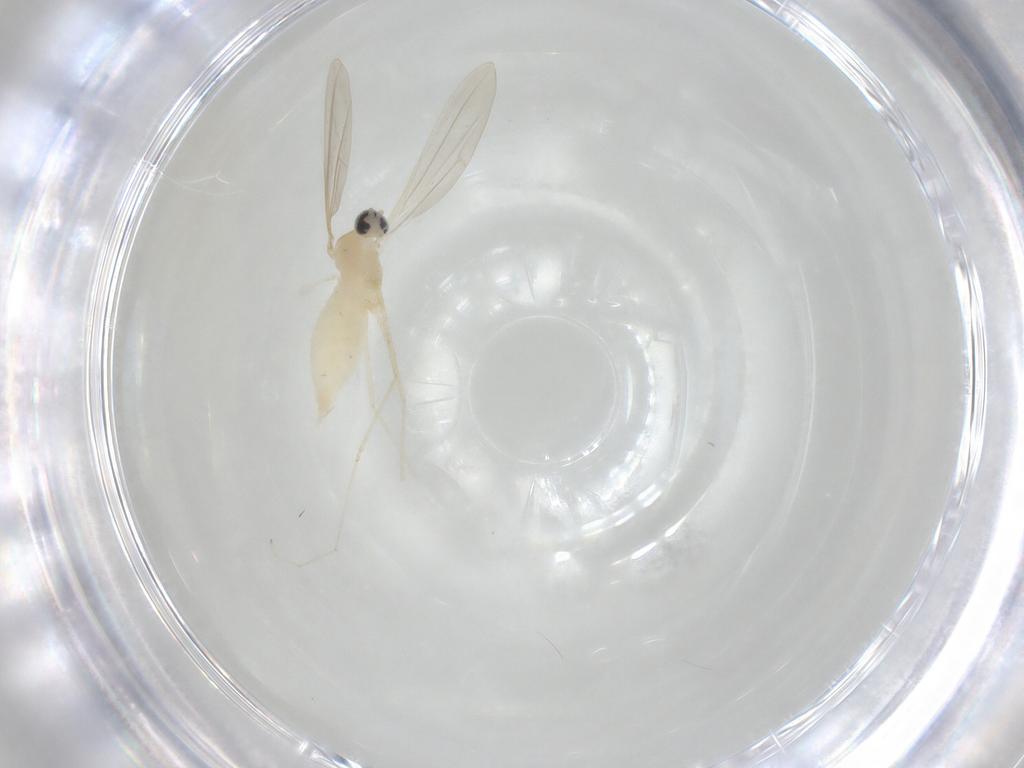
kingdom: Animalia
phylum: Arthropoda
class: Insecta
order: Diptera
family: Cecidomyiidae
